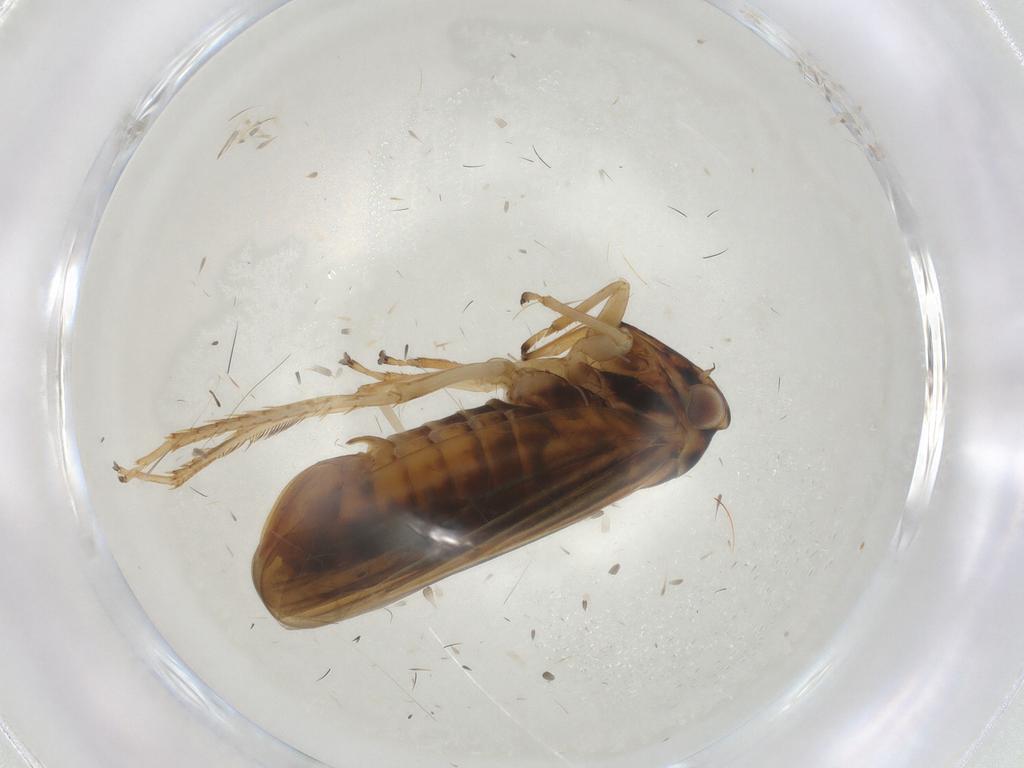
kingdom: Animalia
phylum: Arthropoda
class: Insecta
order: Hemiptera
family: Cicadellidae
